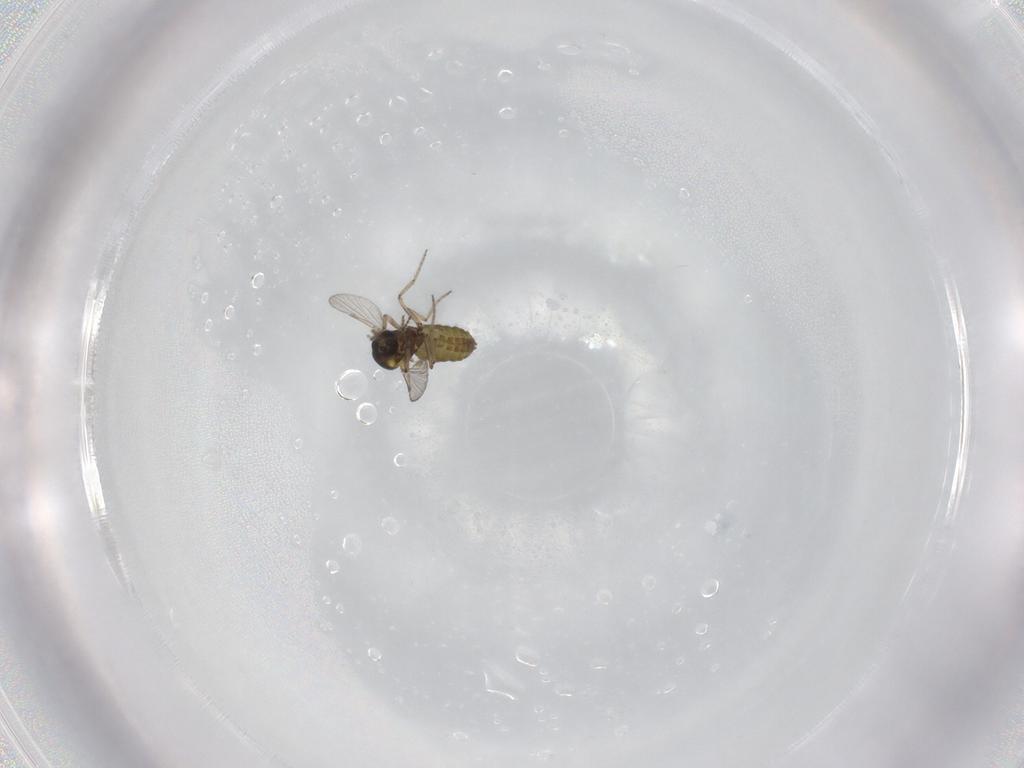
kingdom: Animalia
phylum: Arthropoda
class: Insecta
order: Diptera
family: Ceratopogonidae
